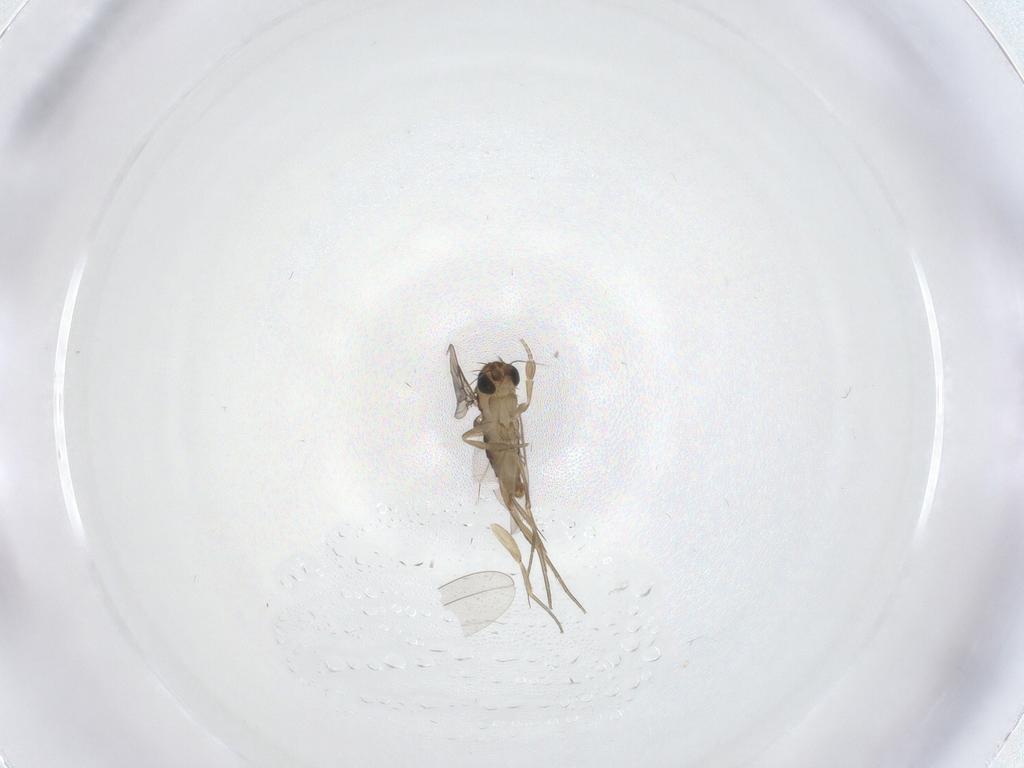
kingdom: Animalia
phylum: Arthropoda
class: Insecta
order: Diptera
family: Phoridae
